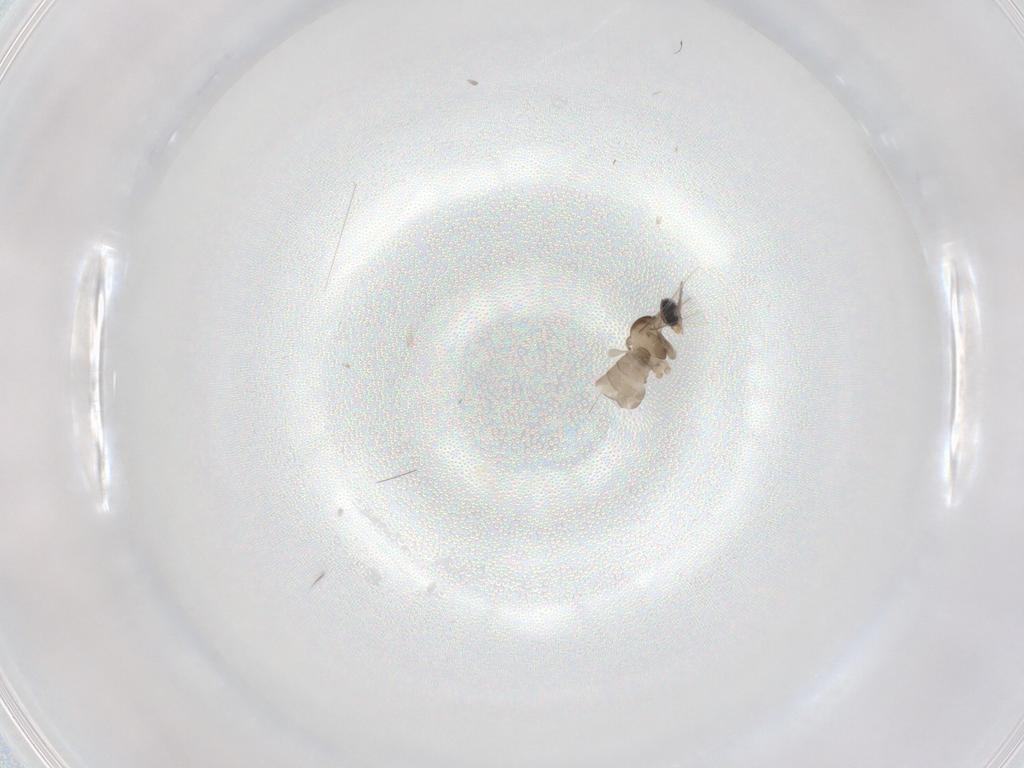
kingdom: Animalia
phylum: Arthropoda
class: Insecta
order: Diptera
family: Cecidomyiidae
